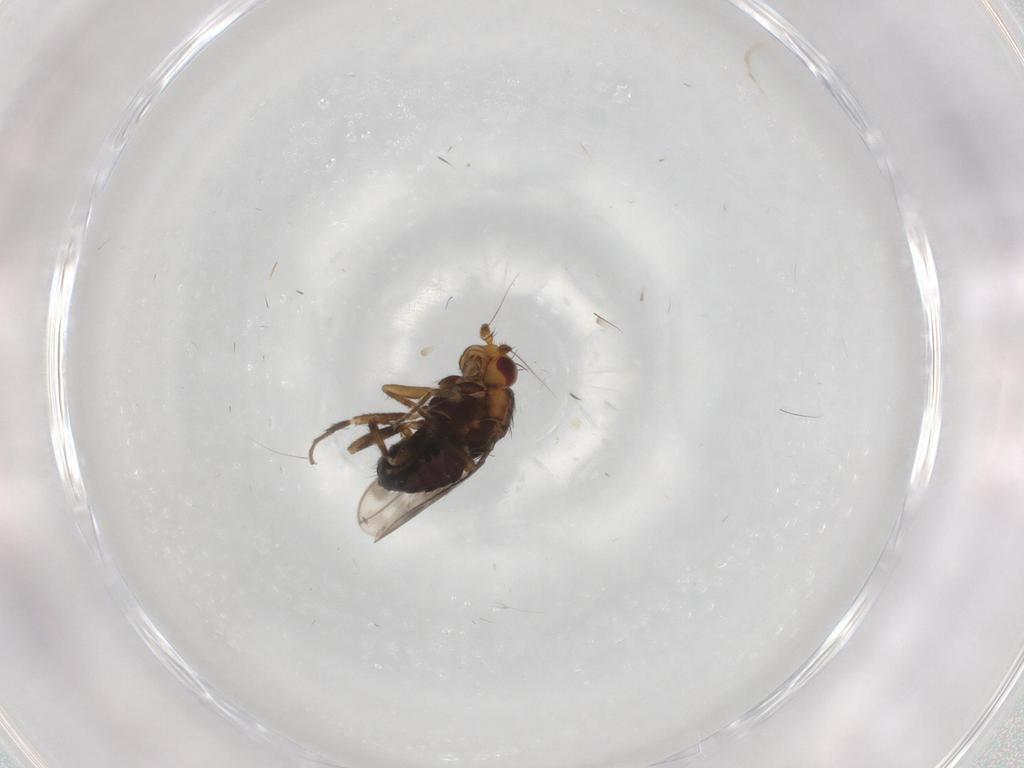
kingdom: Animalia
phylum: Arthropoda
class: Insecta
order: Diptera
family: Sphaeroceridae
